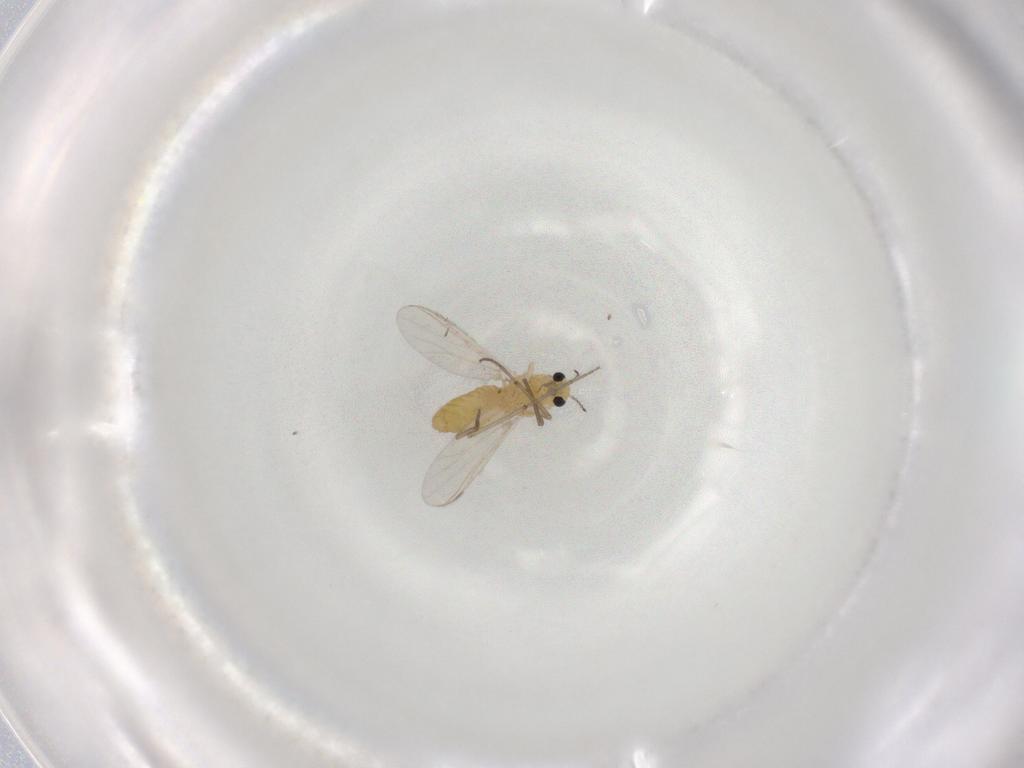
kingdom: Animalia
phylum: Arthropoda
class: Insecta
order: Diptera
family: Chironomidae
